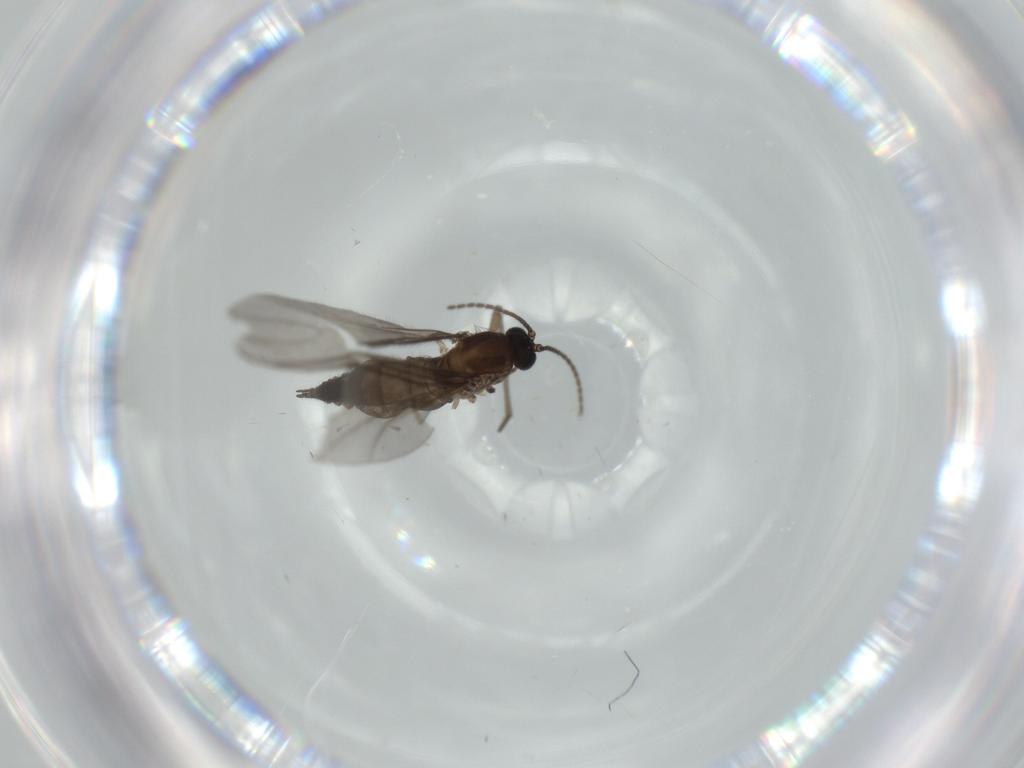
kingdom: Animalia
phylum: Arthropoda
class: Insecta
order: Diptera
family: Sciaridae
